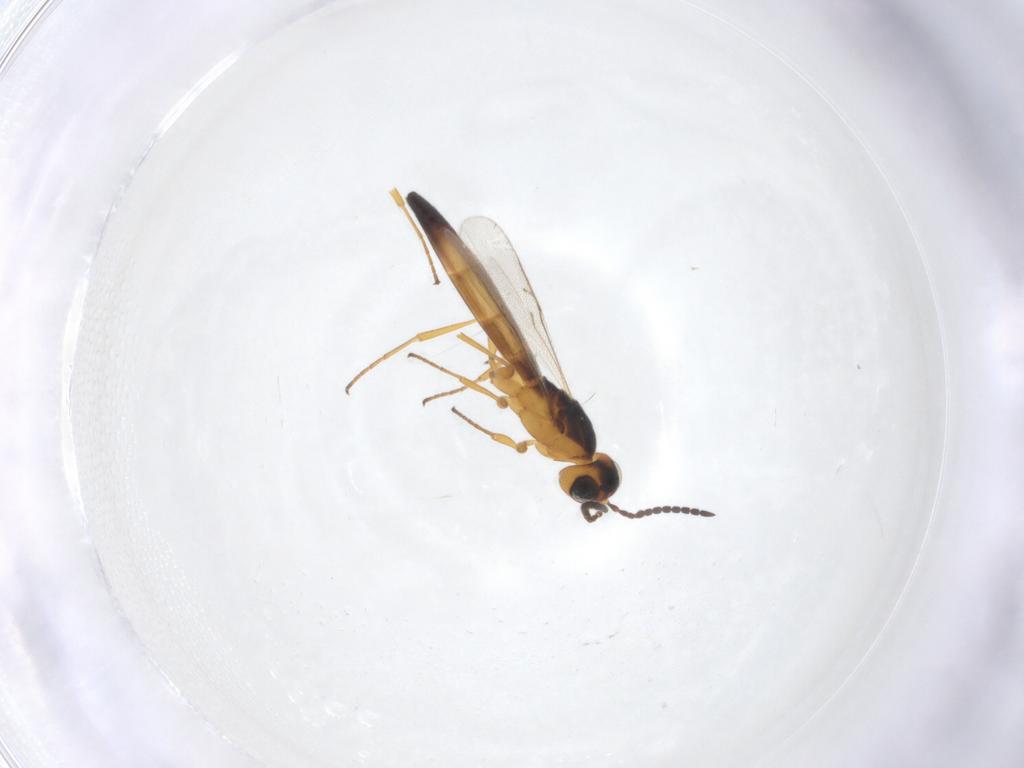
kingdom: Animalia
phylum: Arthropoda
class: Insecta
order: Hymenoptera
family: Scelionidae
